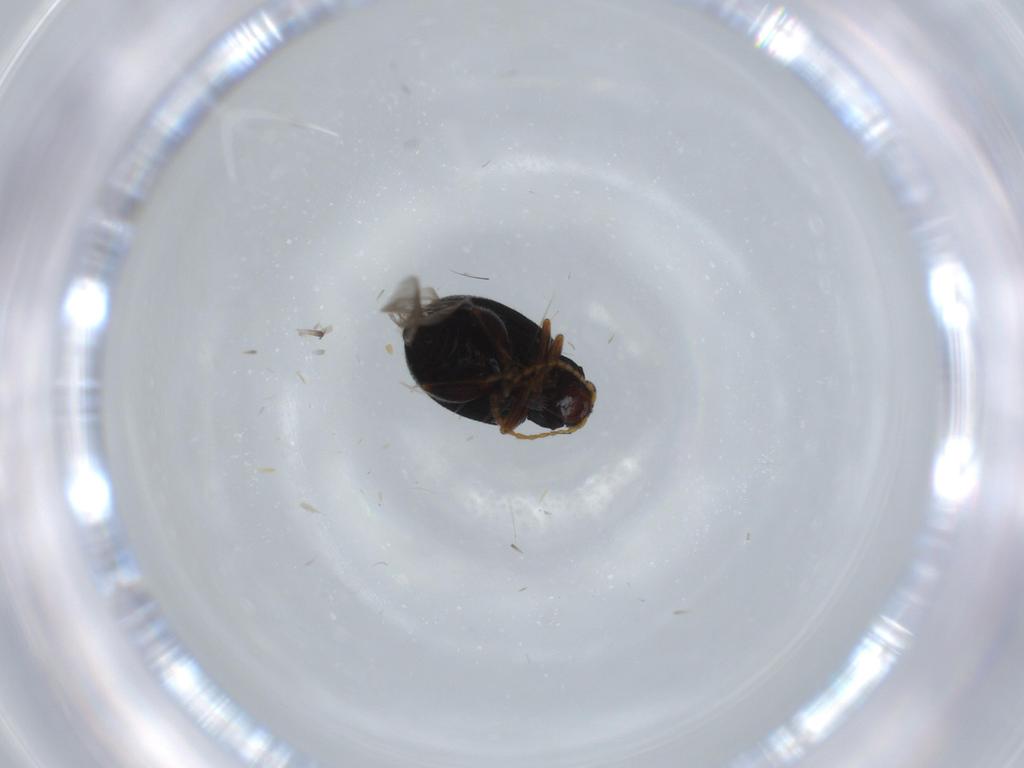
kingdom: Animalia
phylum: Arthropoda
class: Insecta
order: Coleoptera
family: Chrysomelidae
